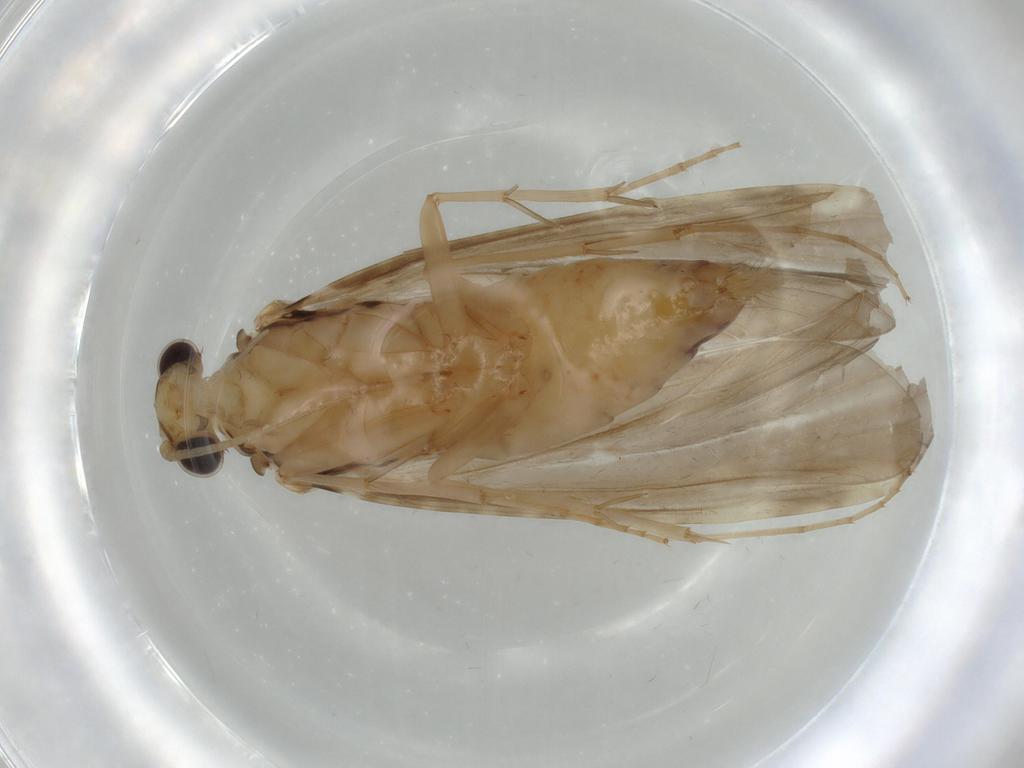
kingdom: Animalia
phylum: Arthropoda
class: Insecta
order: Trichoptera
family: Ecnomidae
